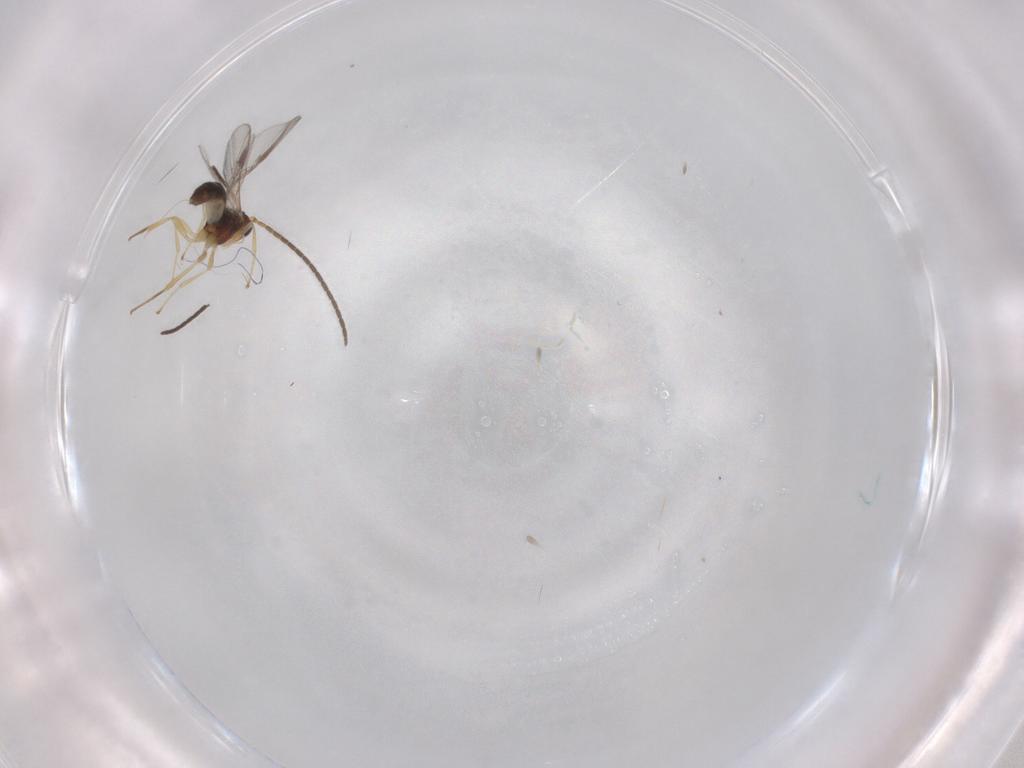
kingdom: Animalia
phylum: Arthropoda
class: Insecta
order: Hymenoptera
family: Braconidae
